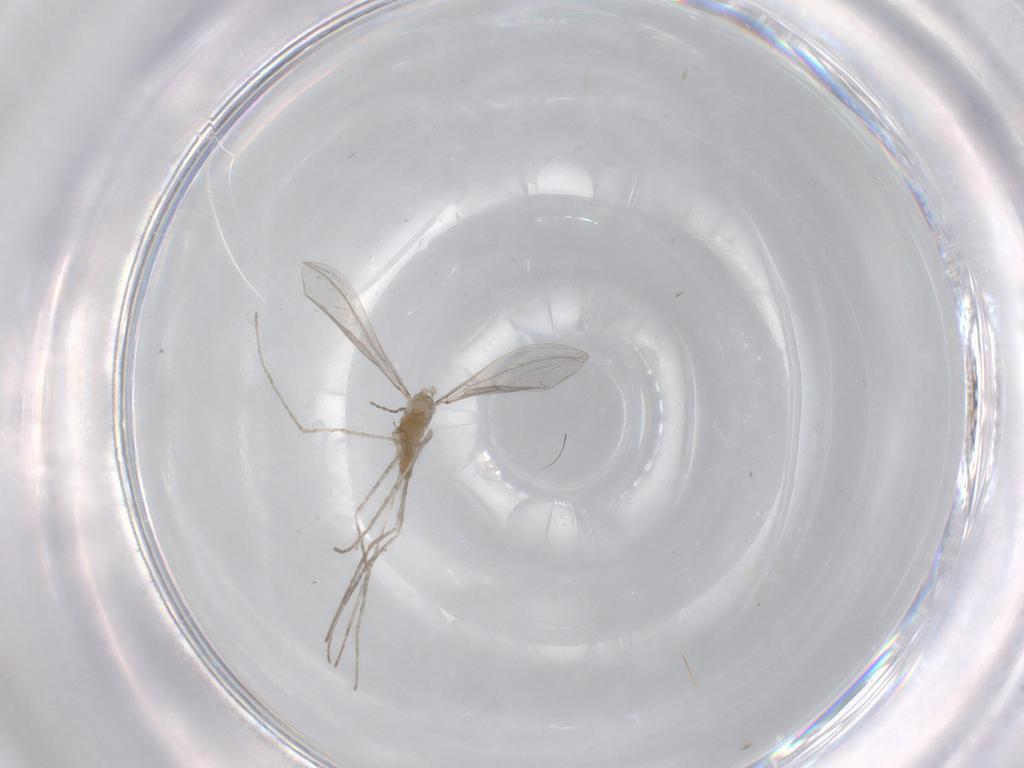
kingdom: Animalia
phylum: Arthropoda
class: Insecta
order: Diptera
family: Cecidomyiidae
